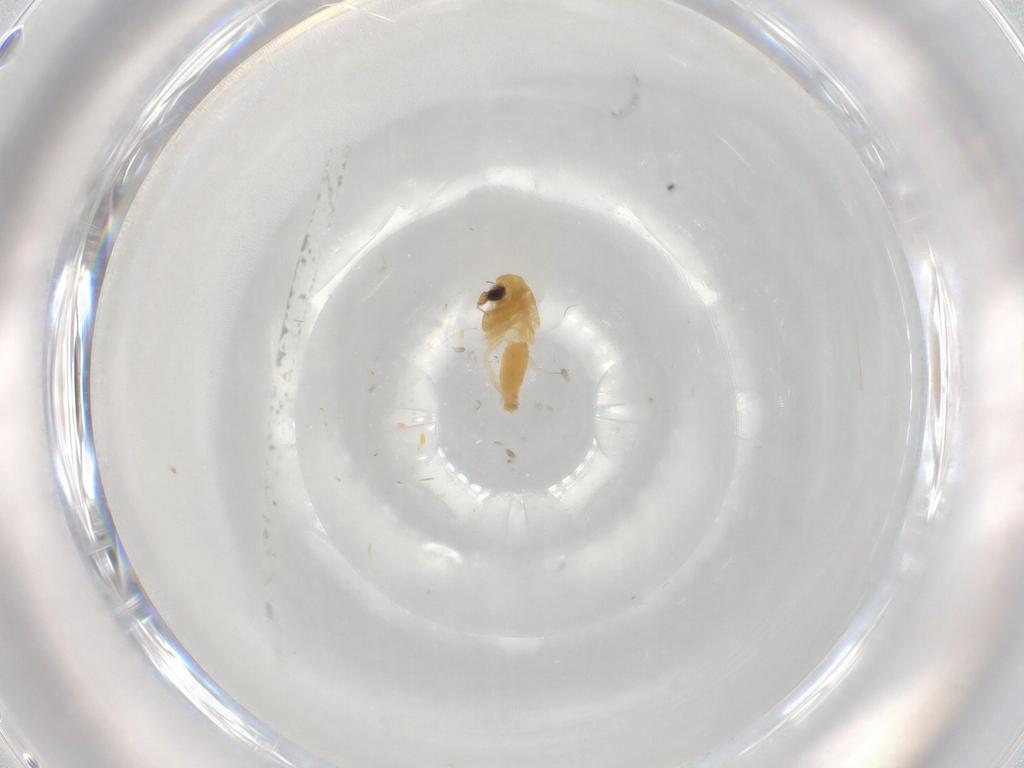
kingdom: Animalia
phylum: Arthropoda
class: Insecta
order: Diptera
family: Chironomidae
